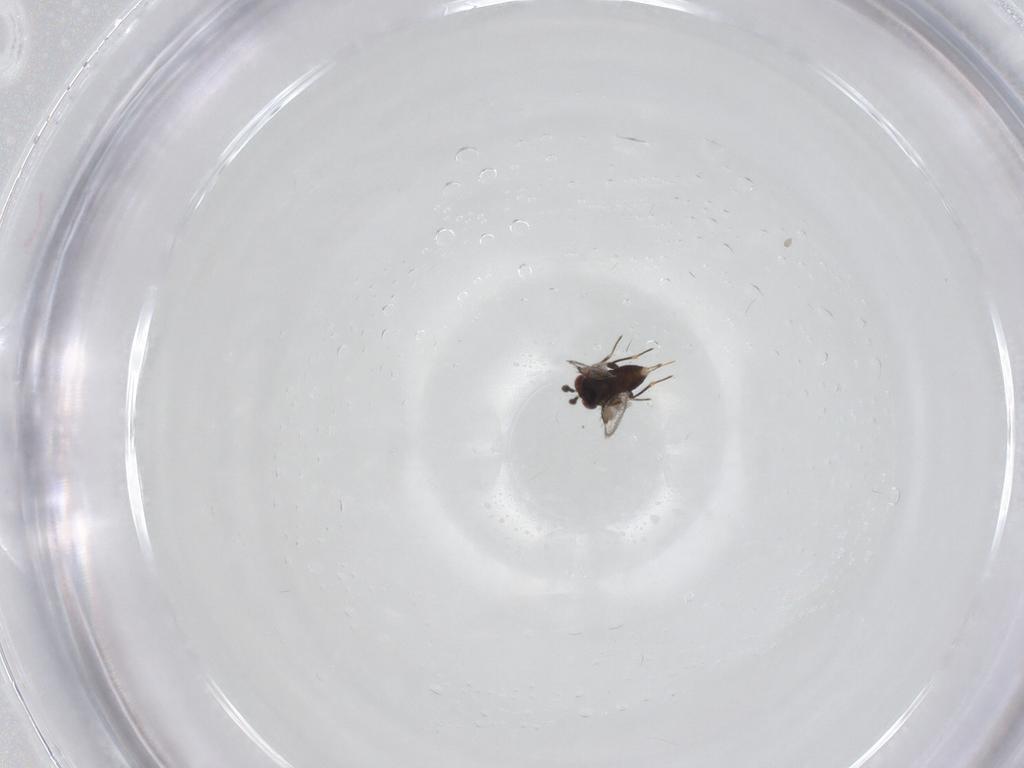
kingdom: Animalia
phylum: Arthropoda
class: Insecta
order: Hymenoptera
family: Eulophidae
